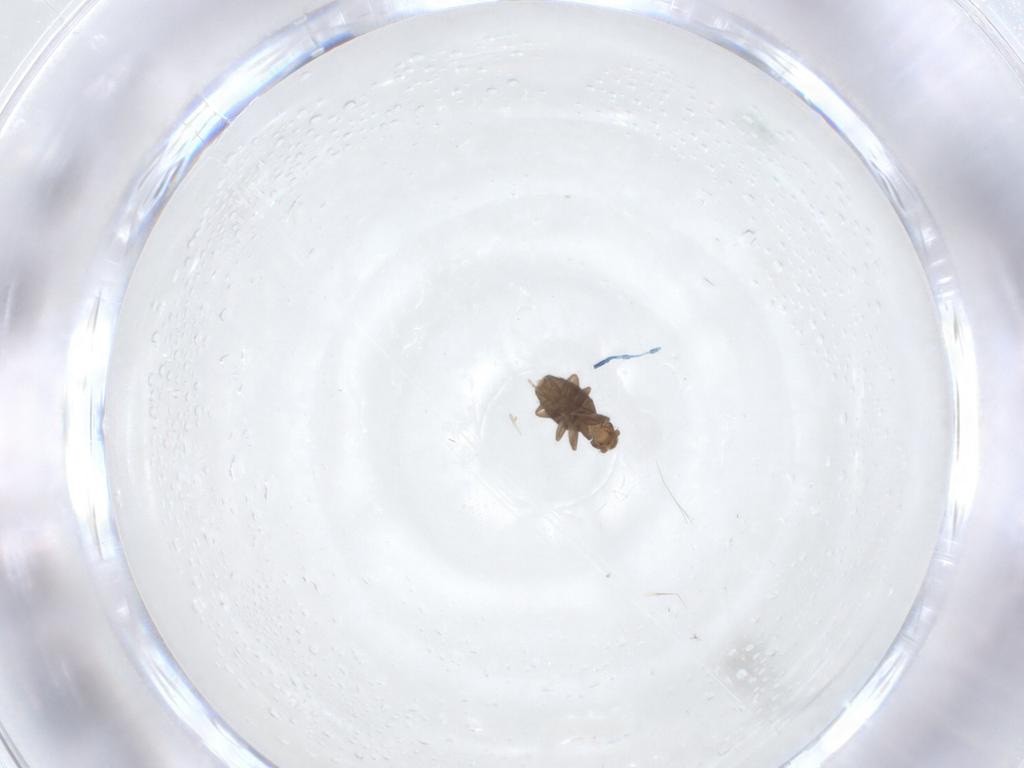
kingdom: Animalia
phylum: Arthropoda
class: Insecta
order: Diptera
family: Phoridae
